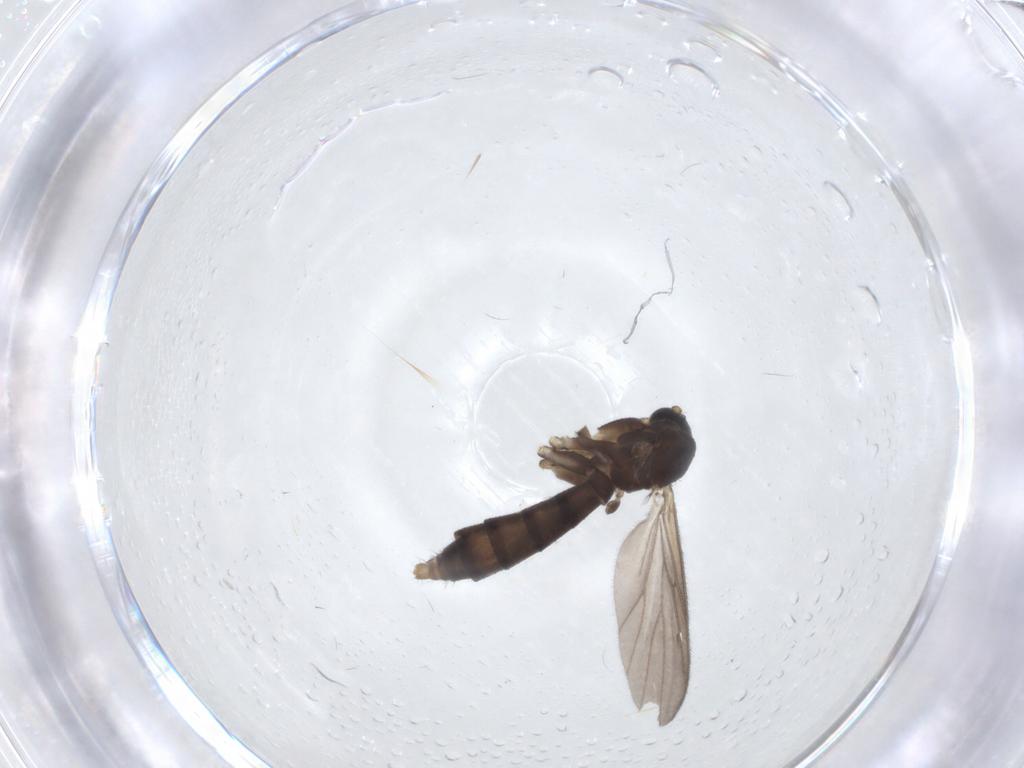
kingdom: Animalia
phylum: Arthropoda
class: Insecta
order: Diptera
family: Mycetophilidae
